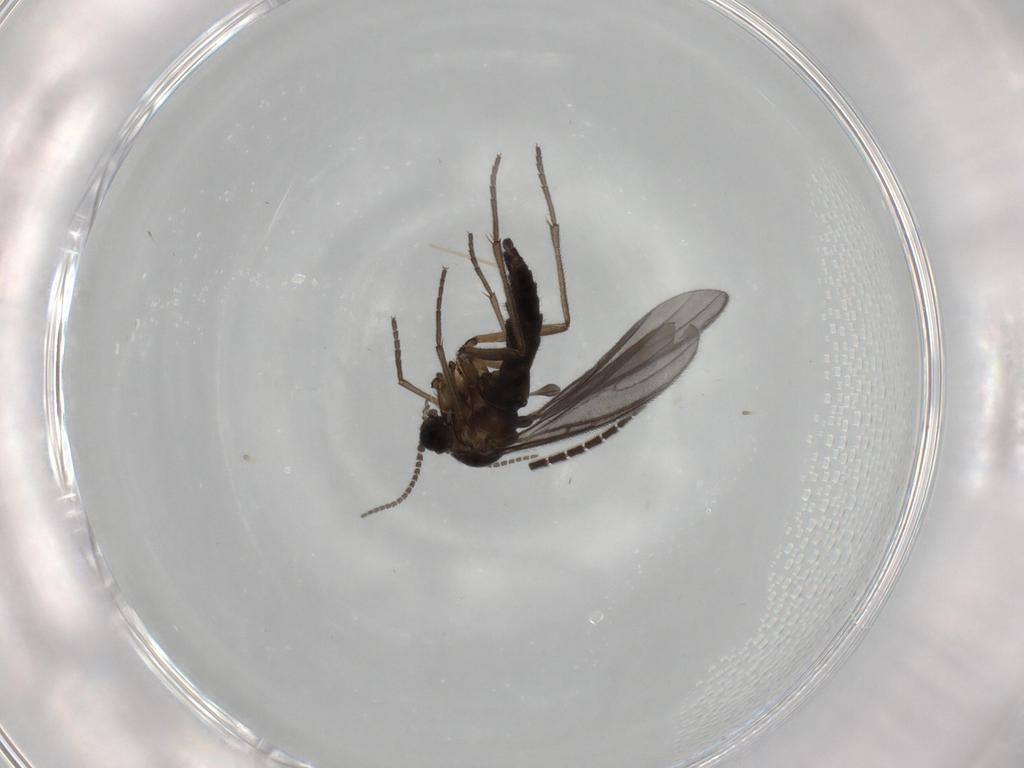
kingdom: Animalia
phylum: Arthropoda
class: Insecta
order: Diptera
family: Sciaridae
